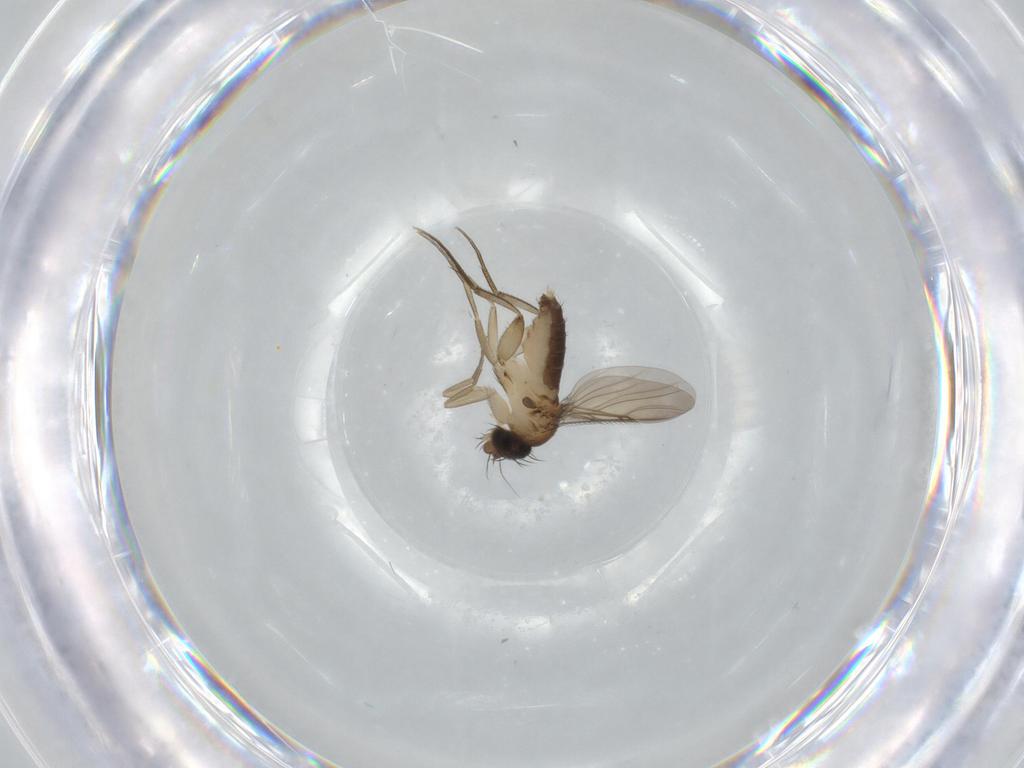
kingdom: Animalia
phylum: Arthropoda
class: Insecta
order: Diptera
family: Phoridae
